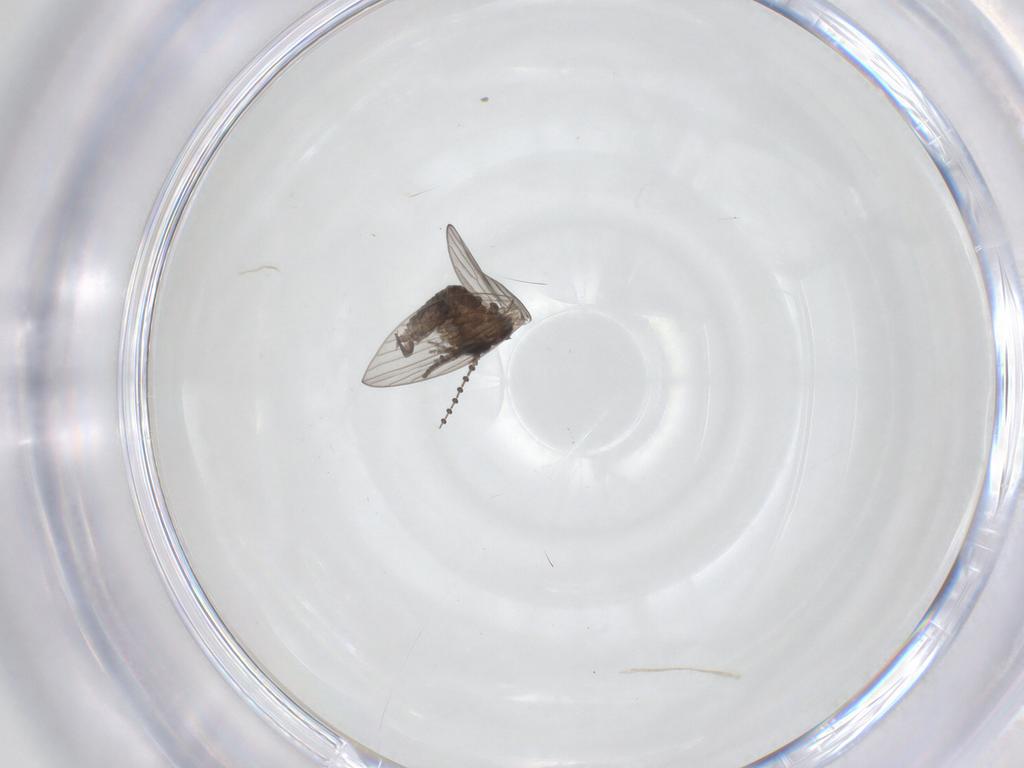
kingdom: Animalia
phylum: Arthropoda
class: Insecta
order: Diptera
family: Psychodidae
